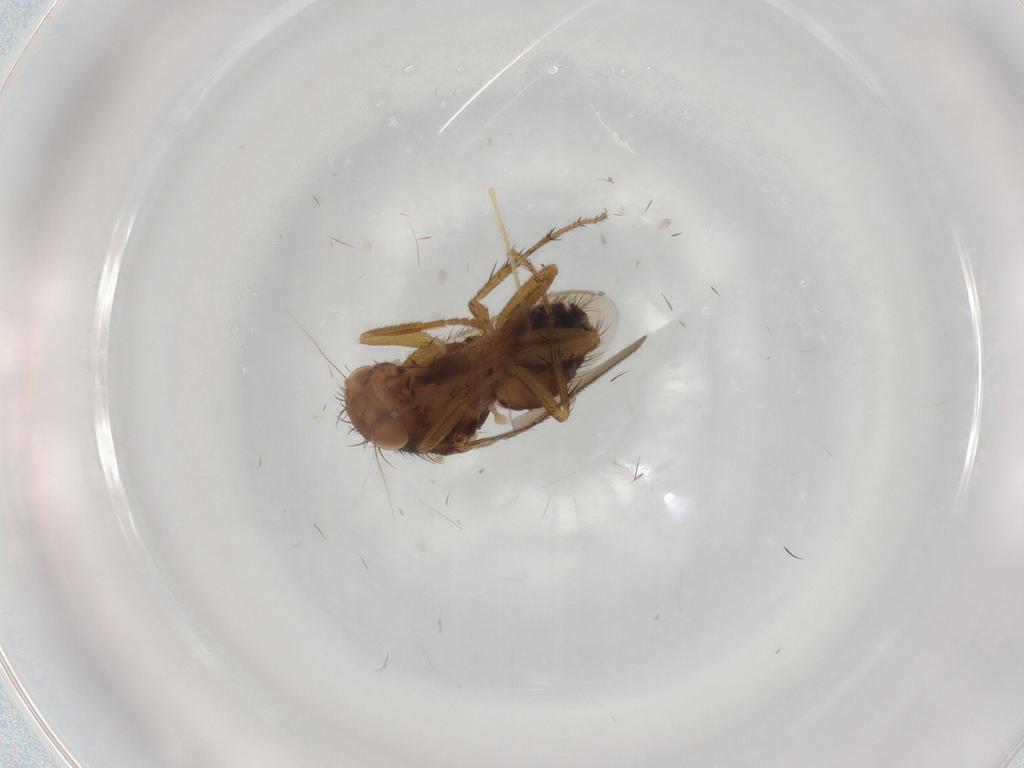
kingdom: Animalia
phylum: Arthropoda
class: Insecta
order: Diptera
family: Sphaeroceridae
